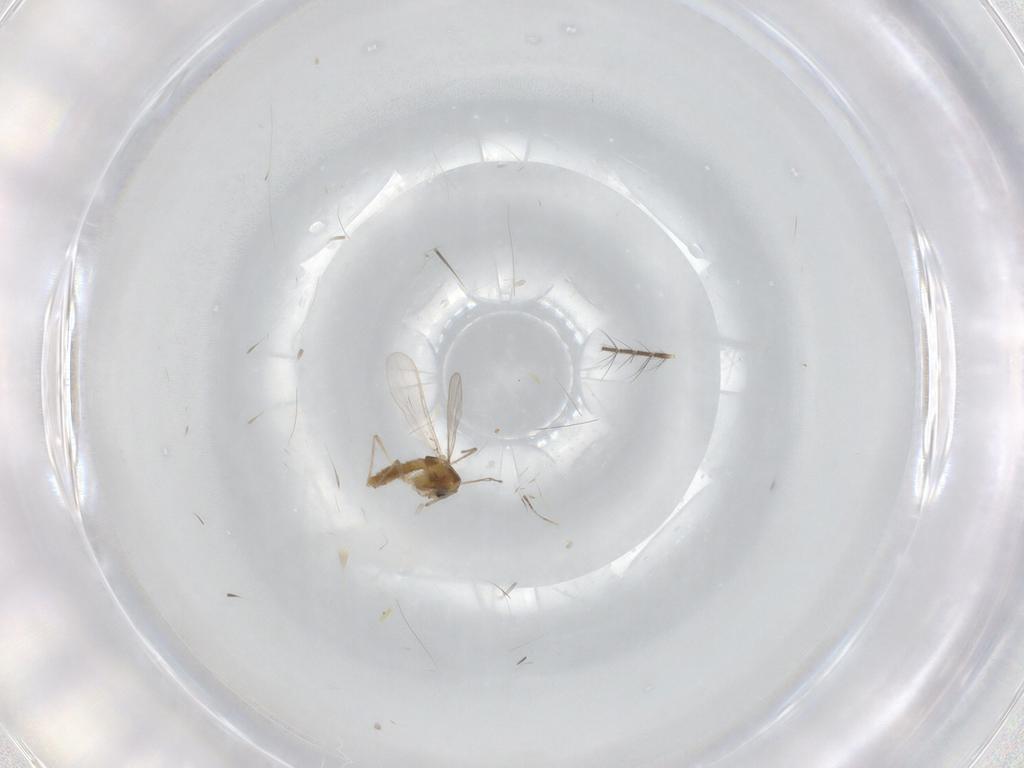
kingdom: Animalia
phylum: Arthropoda
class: Insecta
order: Diptera
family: Chironomidae
